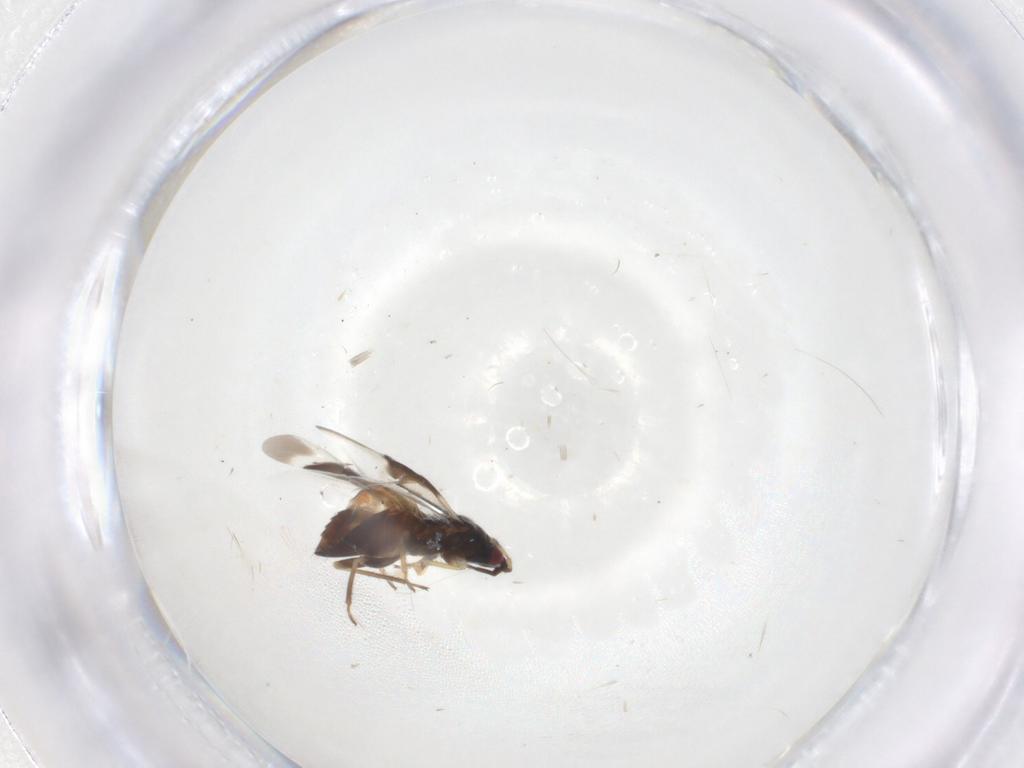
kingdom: Animalia
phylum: Arthropoda
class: Insecta
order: Hemiptera
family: Anthocoridae
